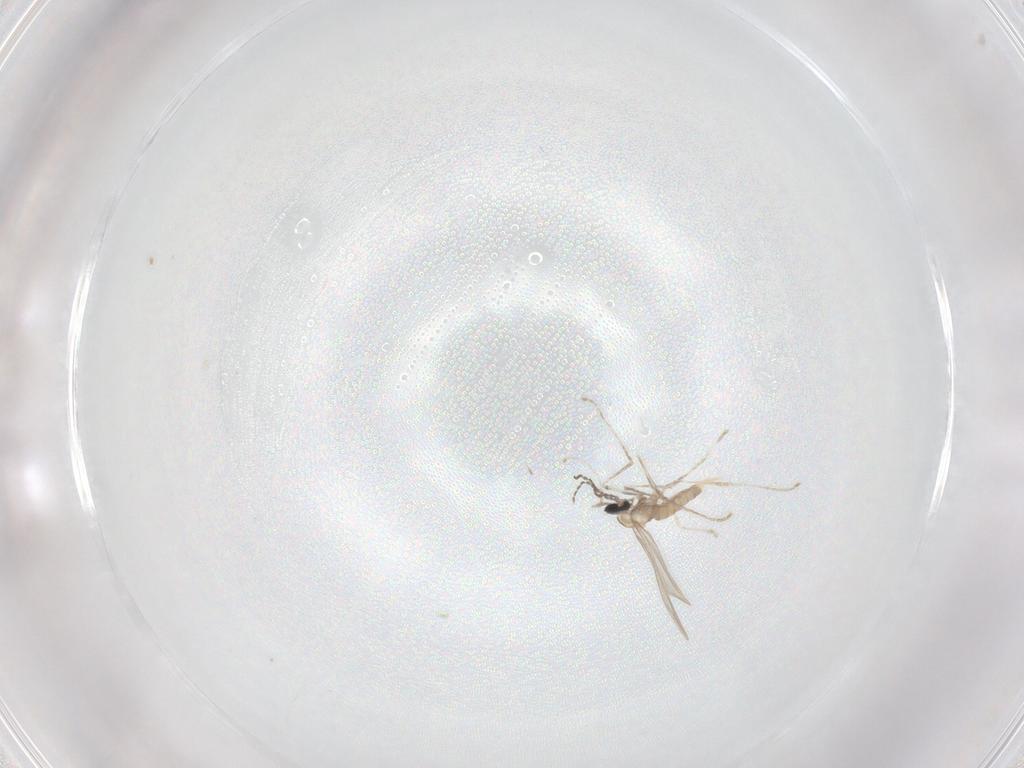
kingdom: Animalia
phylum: Arthropoda
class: Insecta
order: Diptera
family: Cecidomyiidae
